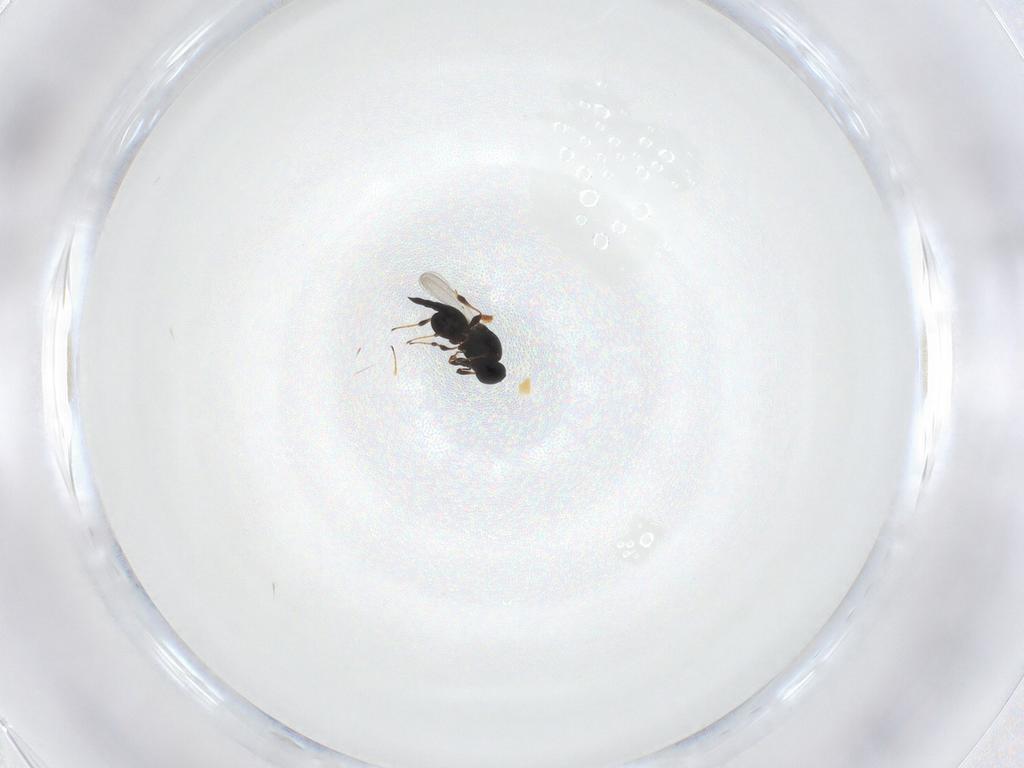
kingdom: Animalia
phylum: Arthropoda
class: Insecta
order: Hymenoptera
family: Platygastridae
